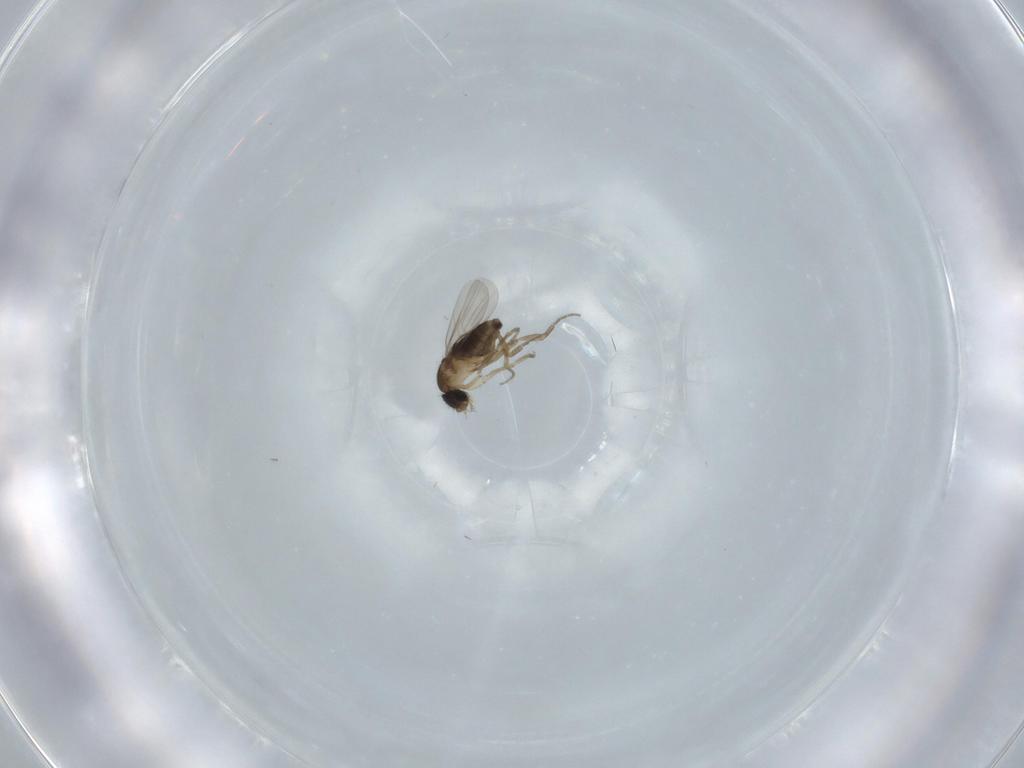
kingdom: Animalia
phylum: Arthropoda
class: Insecta
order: Diptera
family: Phoridae
